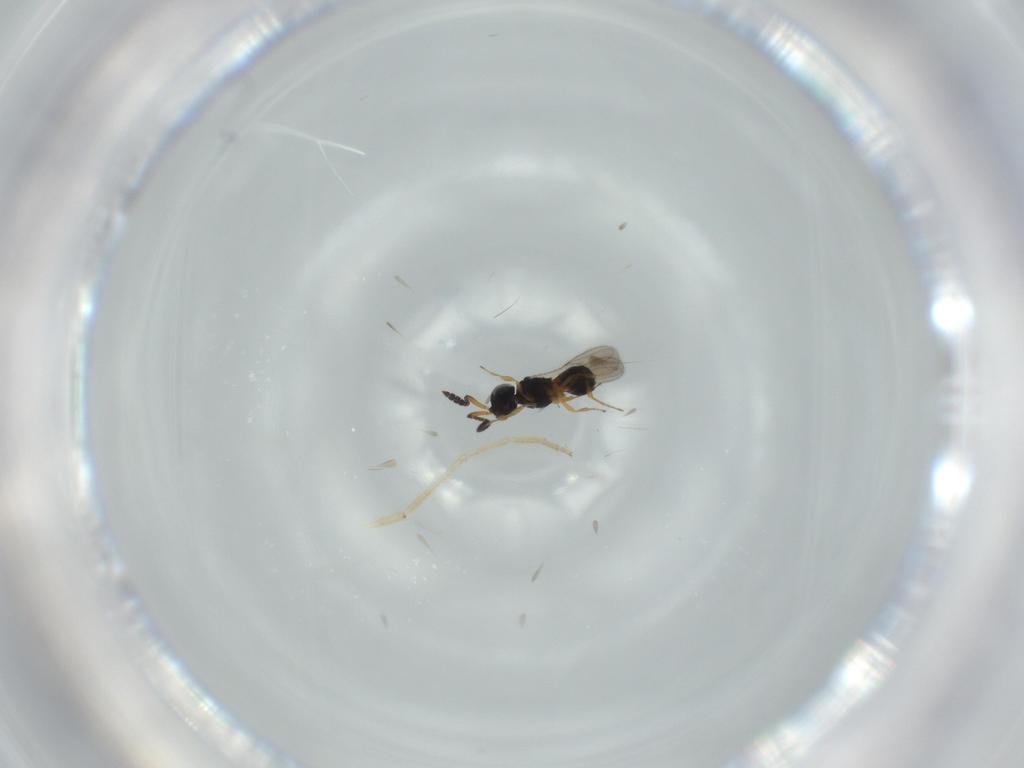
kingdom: Animalia
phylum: Arthropoda
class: Insecta
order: Hymenoptera
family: Scelionidae
